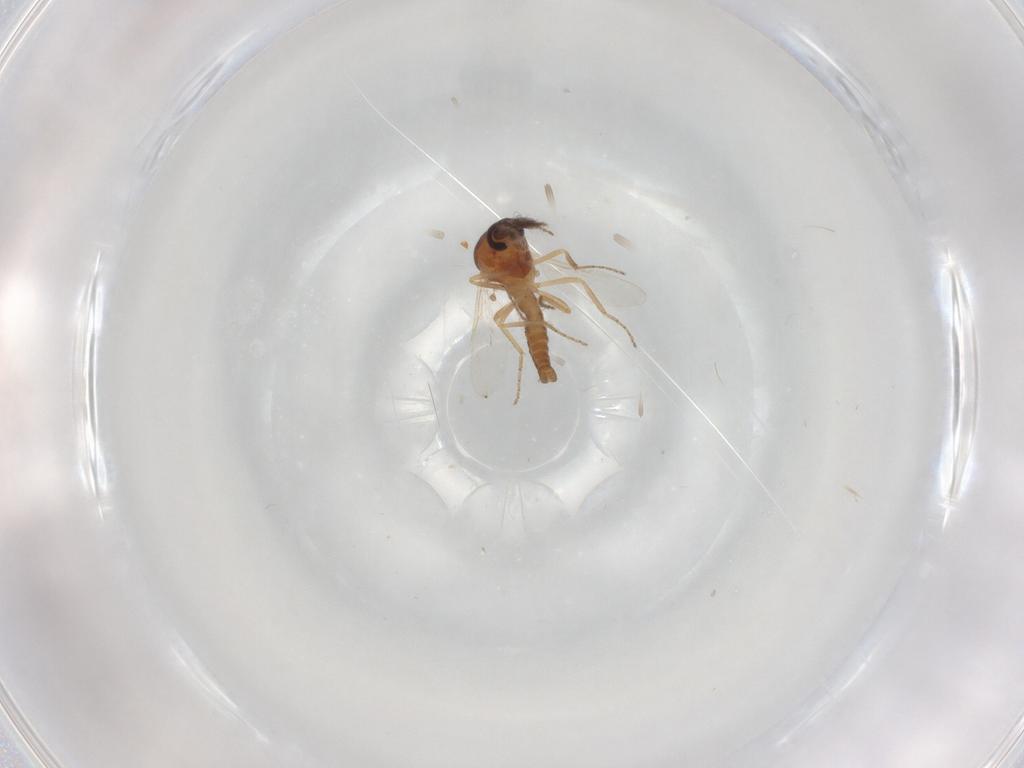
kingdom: Animalia
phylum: Arthropoda
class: Insecta
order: Diptera
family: Ceratopogonidae
